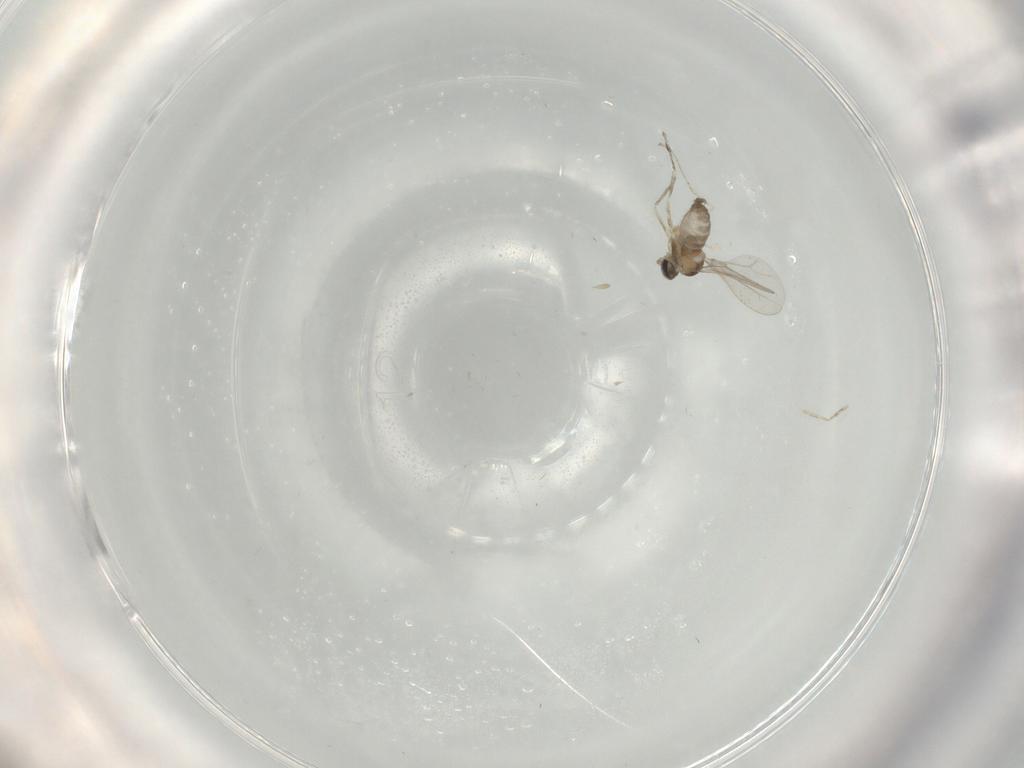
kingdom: Animalia
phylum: Arthropoda
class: Insecta
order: Diptera
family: Cecidomyiidae
